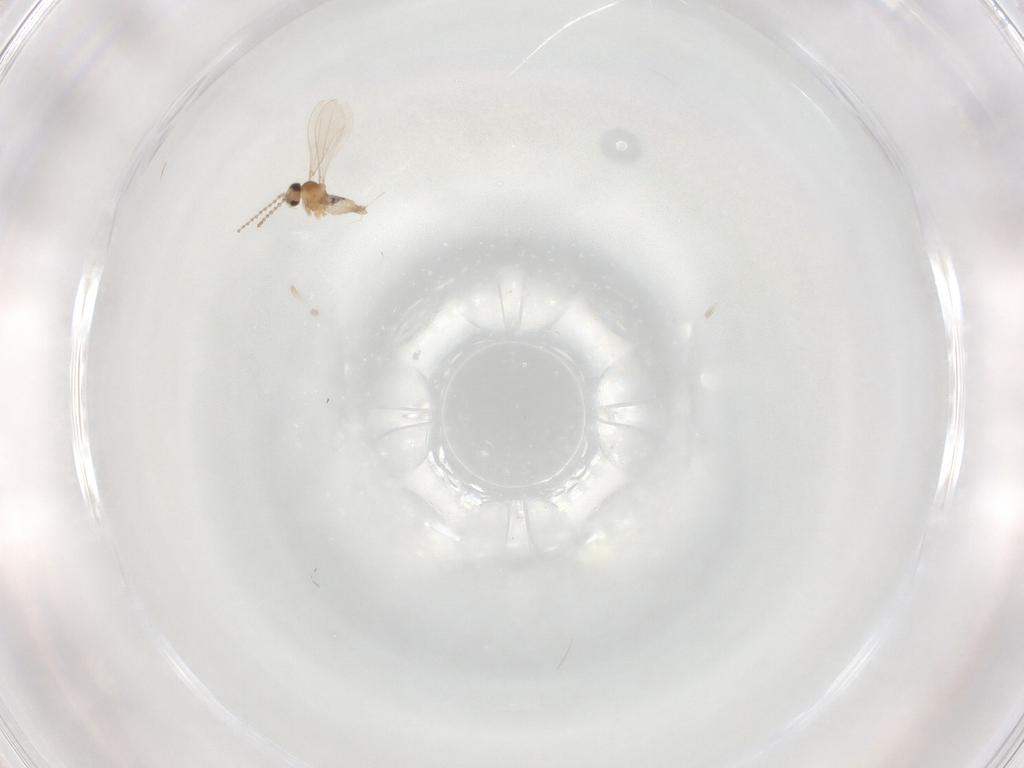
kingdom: Animalia
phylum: Arthropoda
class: Insecta
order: Diptera
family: Cecidomyiidae
